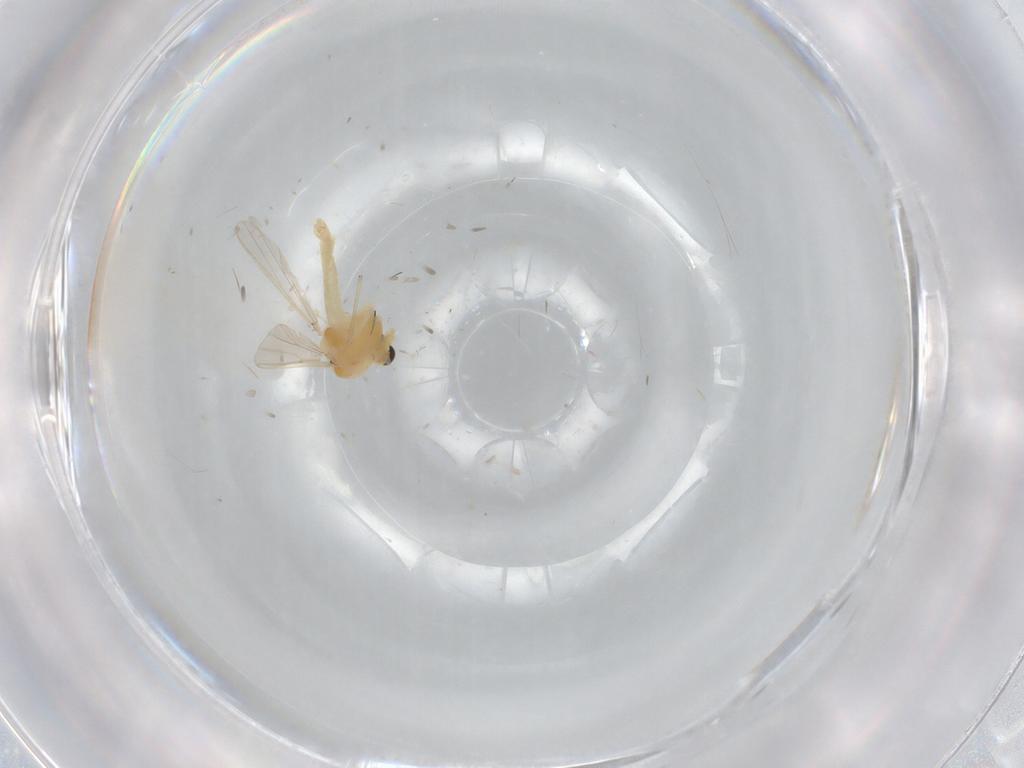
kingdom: Animalia
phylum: Arthropoda
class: Insecta
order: Diptera
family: Chironomidae
